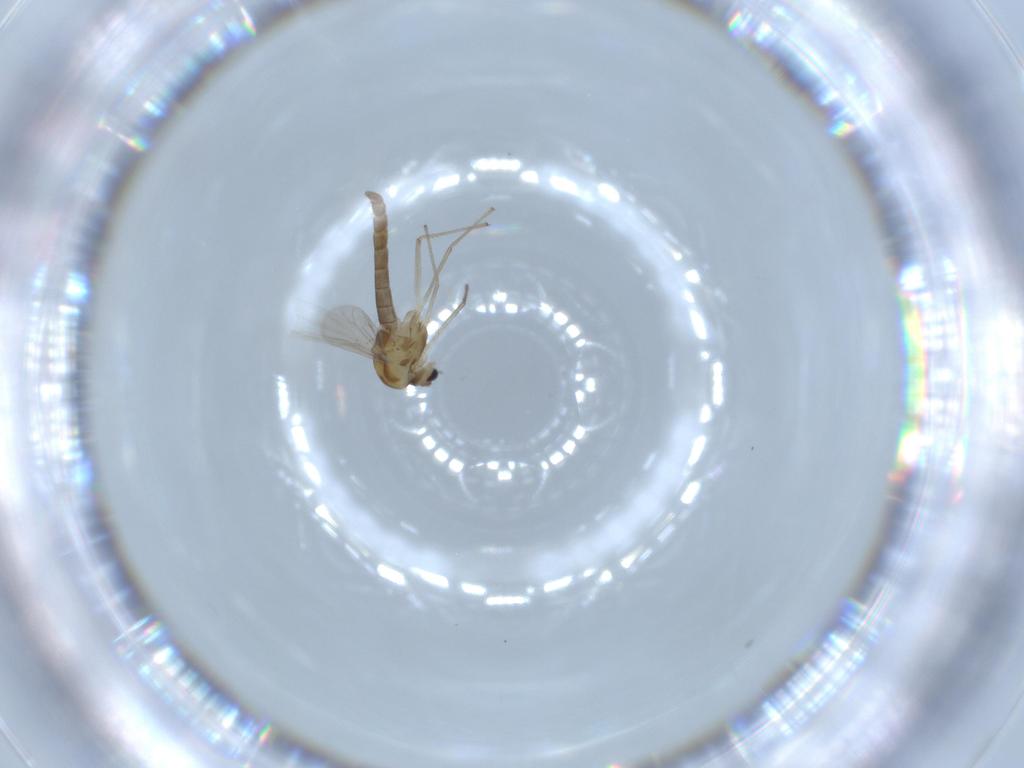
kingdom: Animalia
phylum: Arthropoda
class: Insecta
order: Diptera
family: Chironomidae
